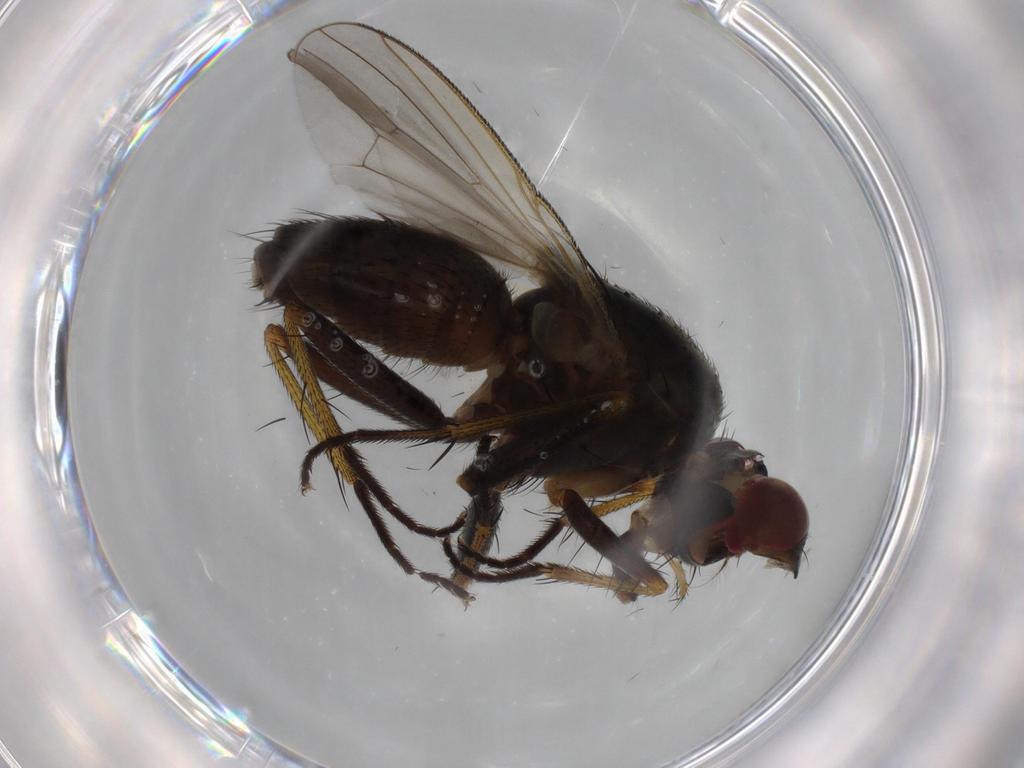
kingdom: Animalia
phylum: Arthropoda
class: Insecta
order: Diptera
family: Muscidae
